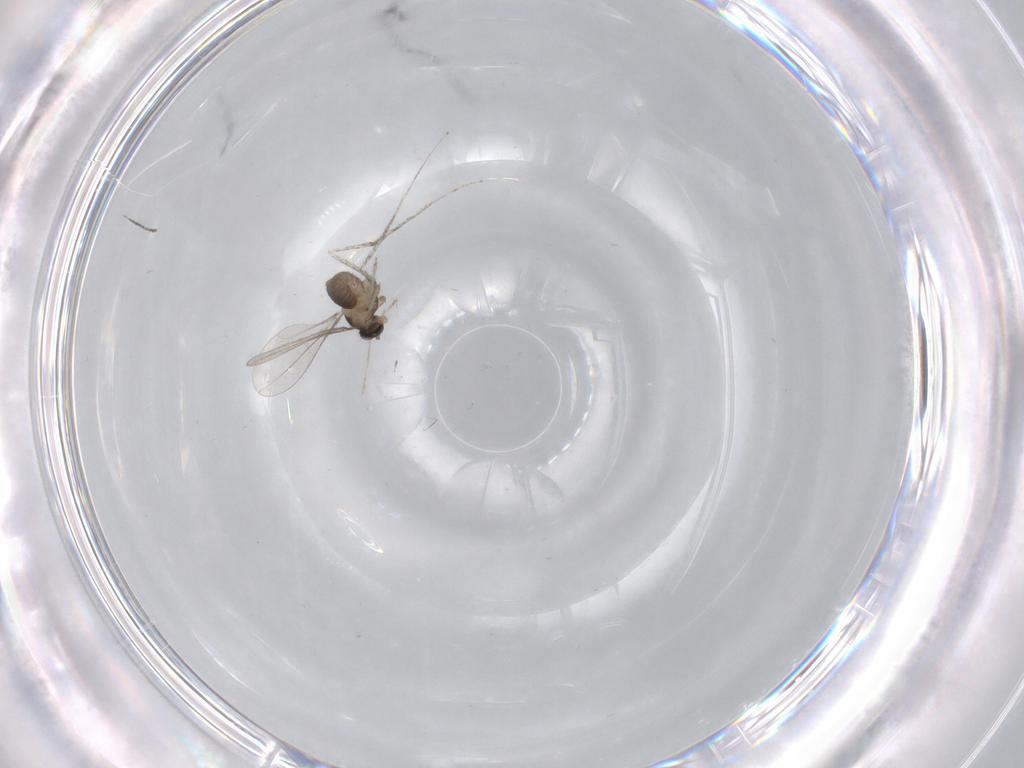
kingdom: Animalia
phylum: Arthropoda
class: Insecta
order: Diptera
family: Cecidomyiidae
